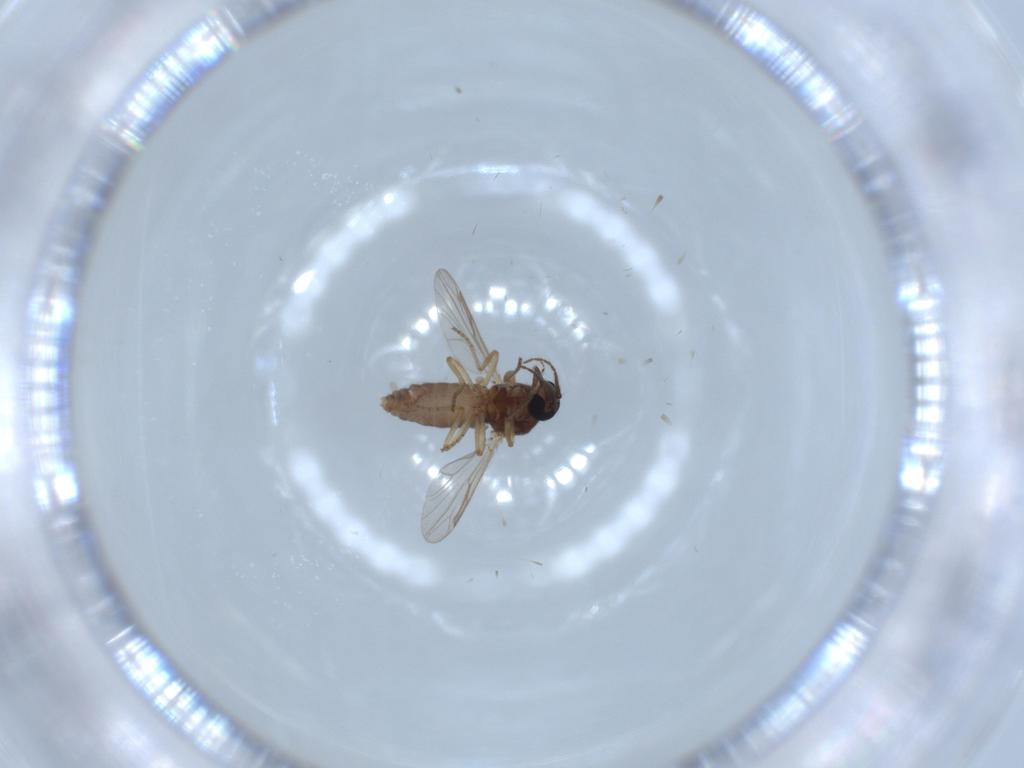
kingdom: Animalia
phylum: Arthropoda
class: Insecta
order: Diptera
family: Ceratopogonidae
